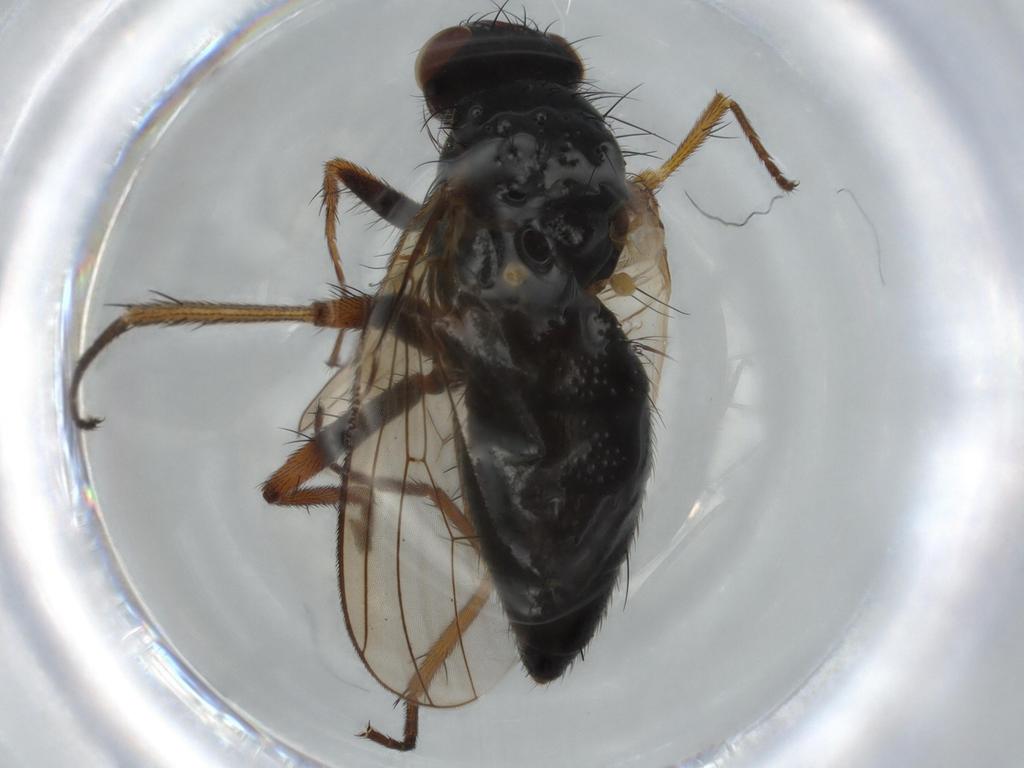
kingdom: Animalia
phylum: Arthropoda
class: Insecta
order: Diptera
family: Scathophagidae
